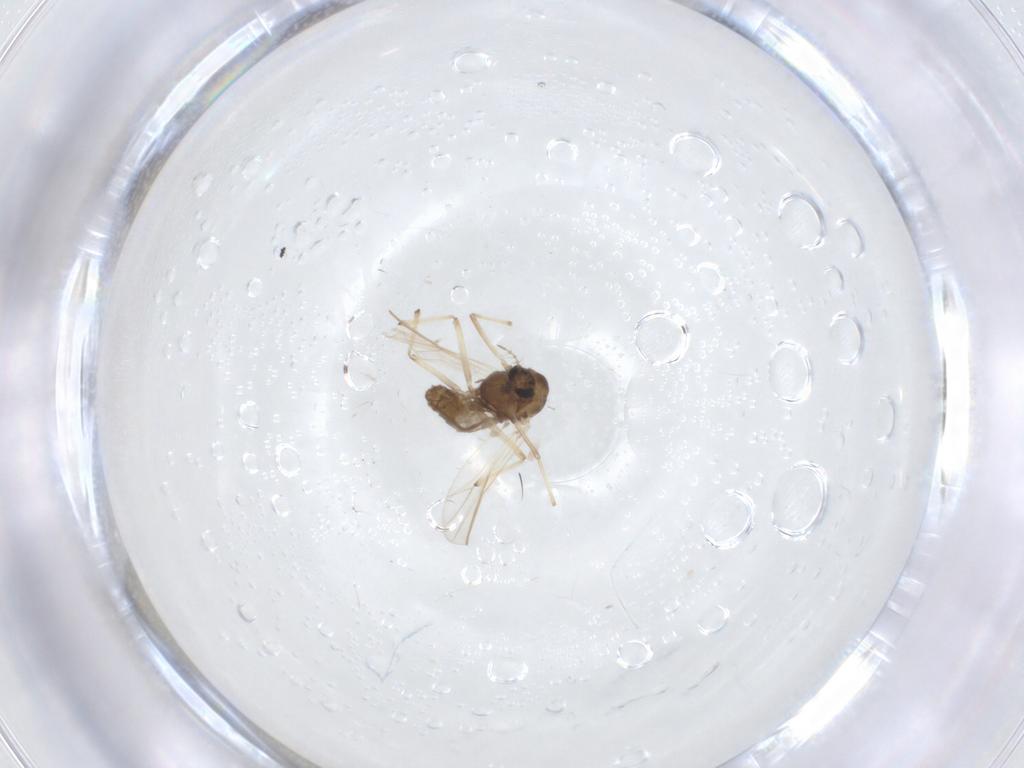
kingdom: Animalia
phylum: Arthropoda
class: Insecta
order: Diptera
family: Chironomidae
